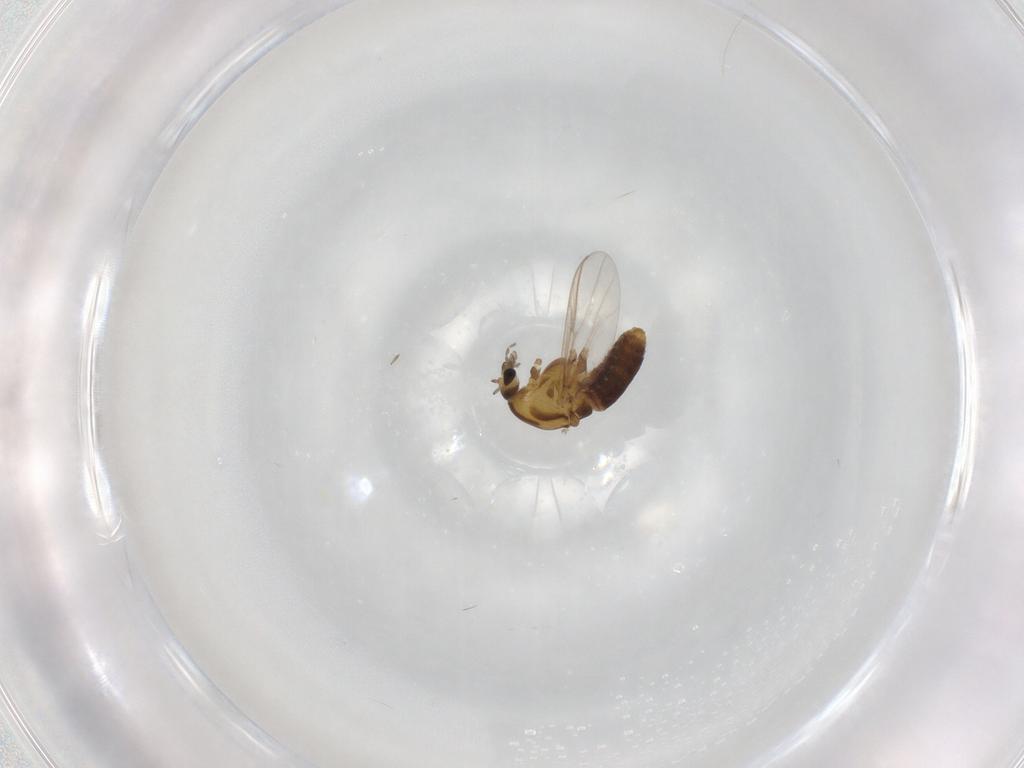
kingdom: Animalia
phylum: Arthropoda
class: Insecta
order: Diptera
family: Chironomidae
